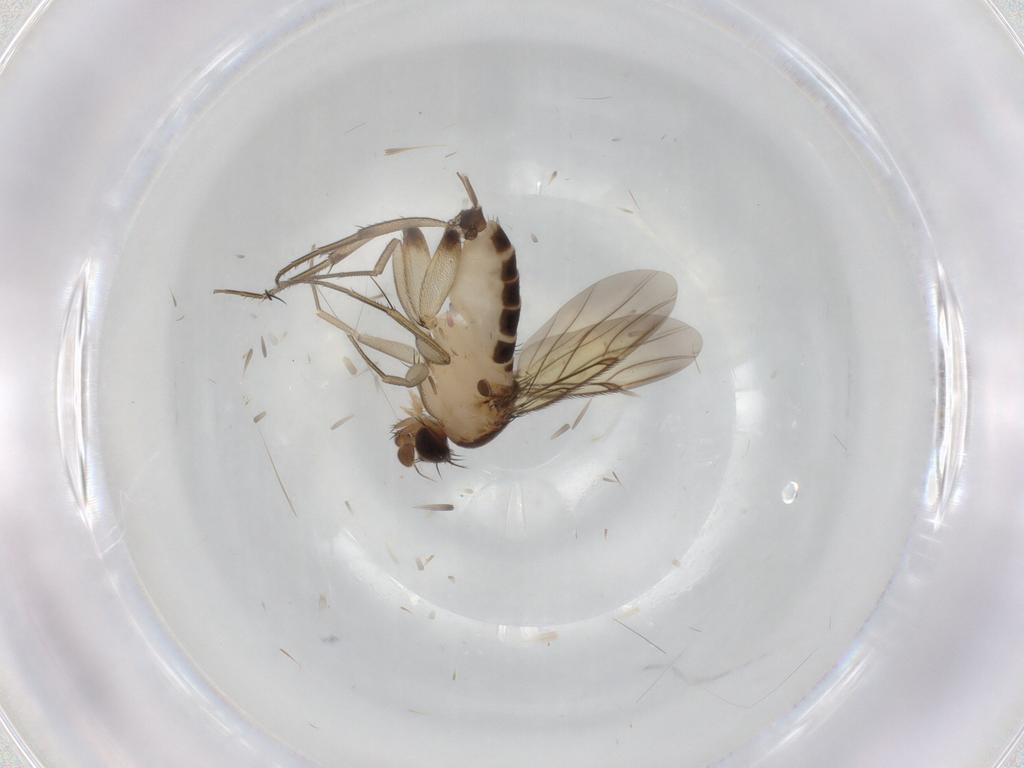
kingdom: Animalia
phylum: Arthropoda
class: Insecta
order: Diptera
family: Phoridae
